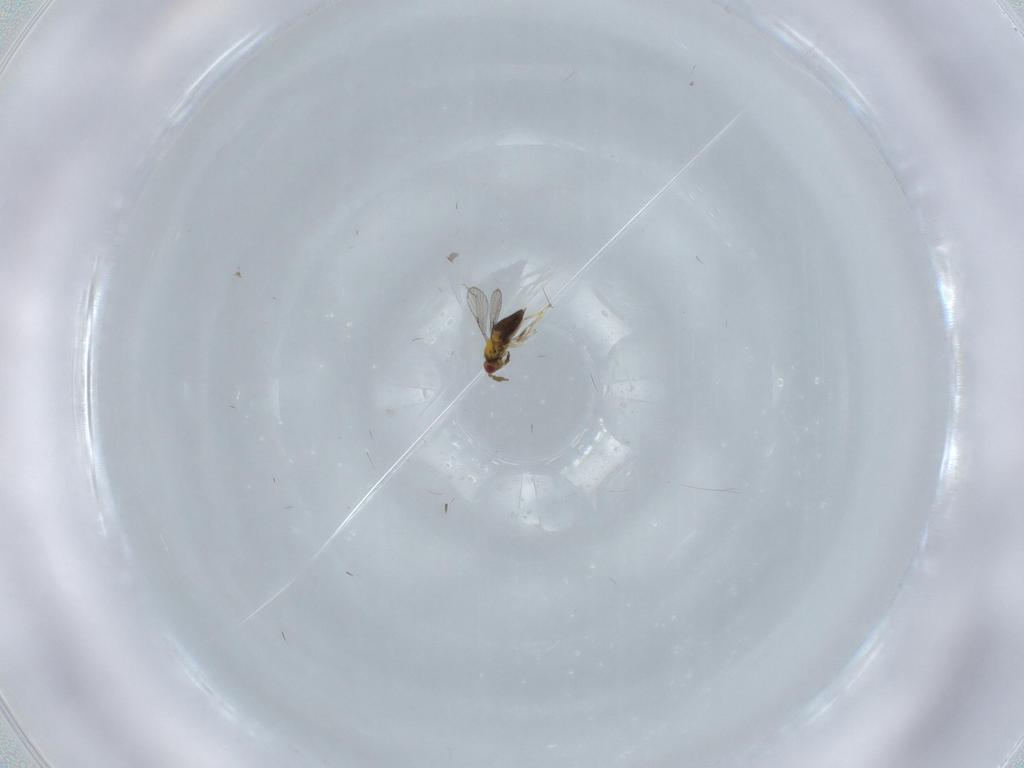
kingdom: Animalia
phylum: Arthropoda
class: Insecta
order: Hymenoptera
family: Trichogrammatidae
